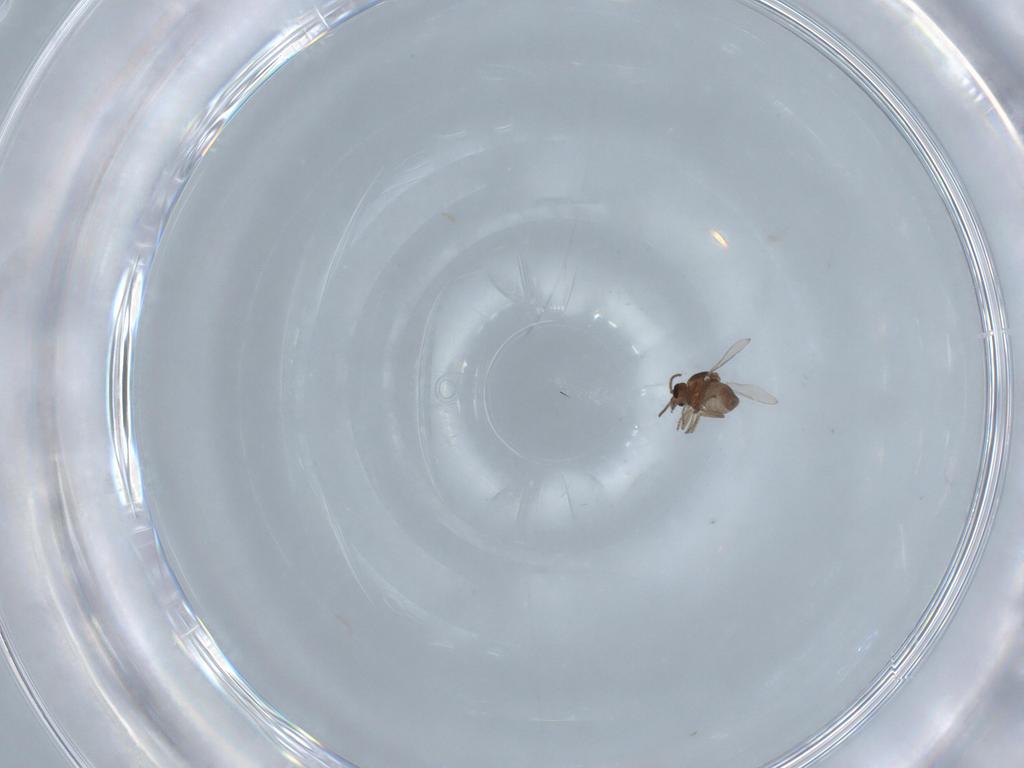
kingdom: Animalia
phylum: Arthropoda
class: Insecta
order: Diptera
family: Ceratopogonidae
